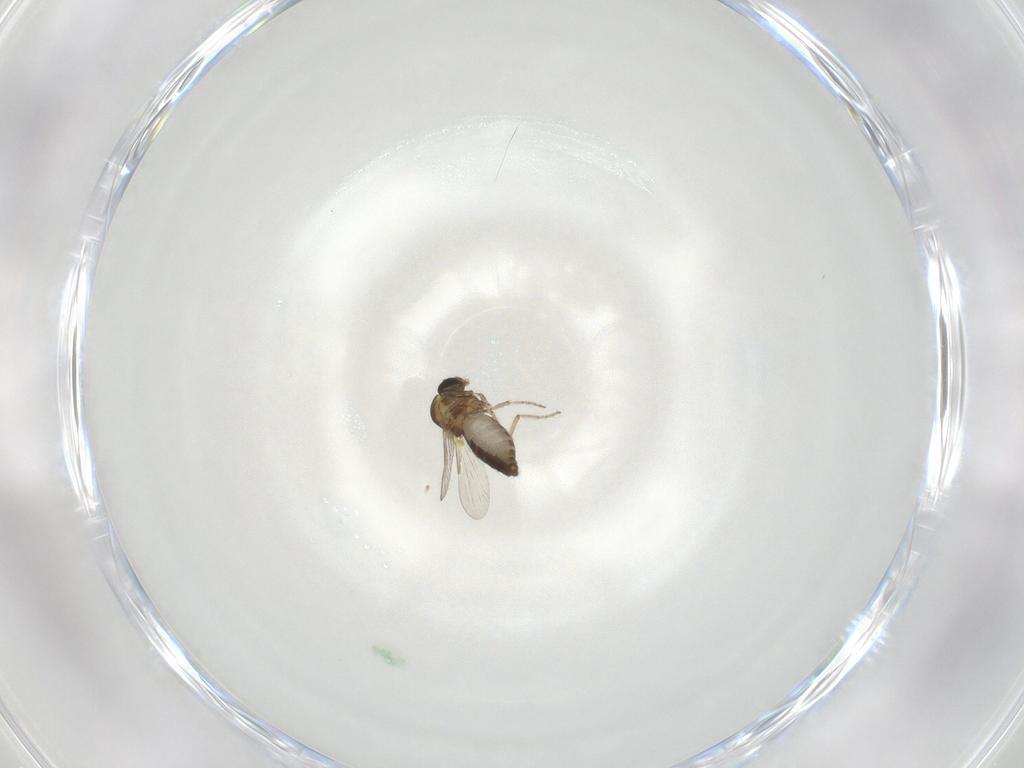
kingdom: Animalia
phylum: Arthropoda
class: Insecta
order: Diptera
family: Ceratopogonidae
